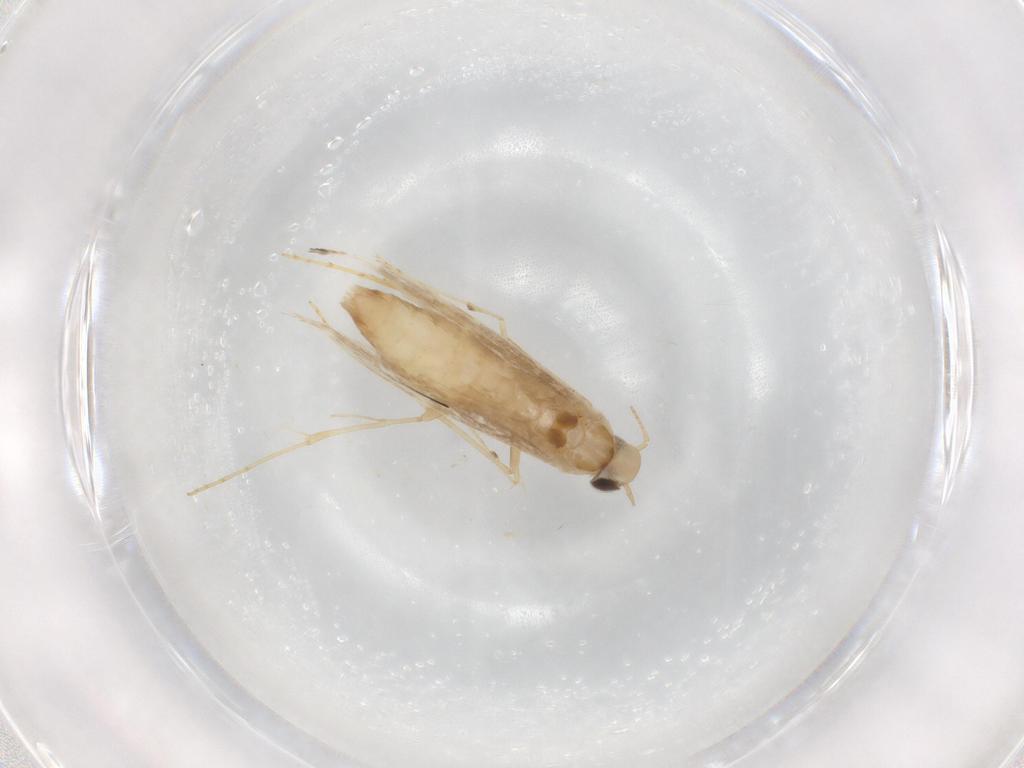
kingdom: Animalia
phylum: Arthropoda
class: Insecta
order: Lepidoptera
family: Gracillariidae
